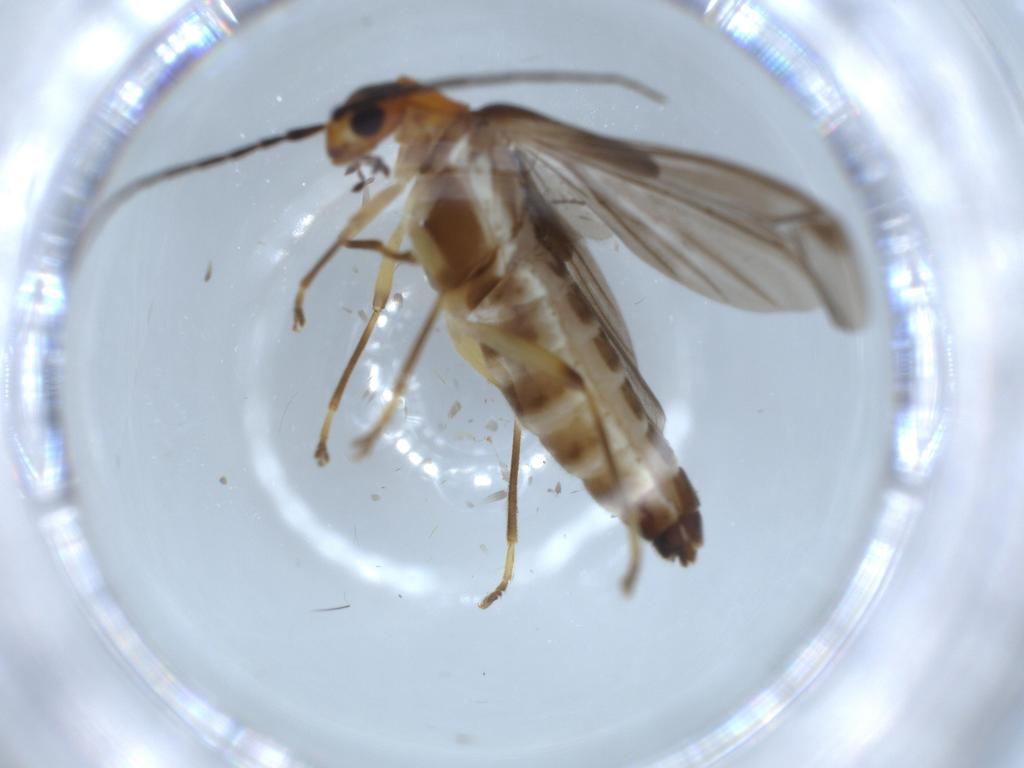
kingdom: Animalia
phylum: Arthropoda
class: Insecta
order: Coleoptera
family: Cantharidae
